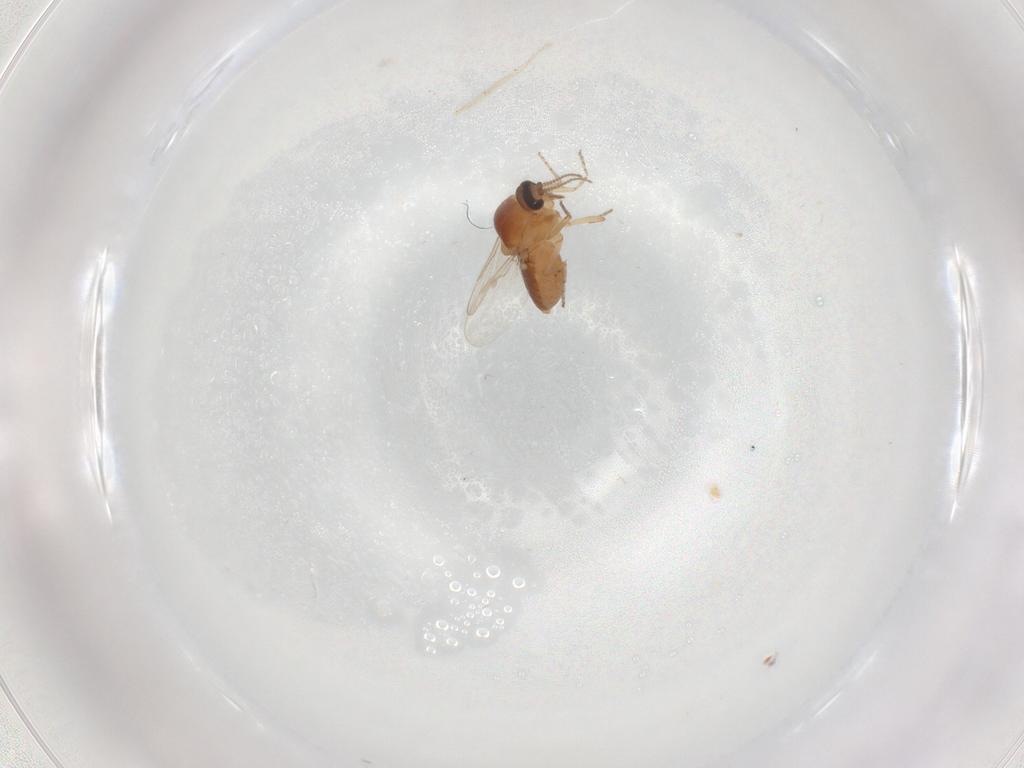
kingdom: Animalia
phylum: Arthropoda
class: Insecta
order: Diptera
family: Ceratopogonidae
